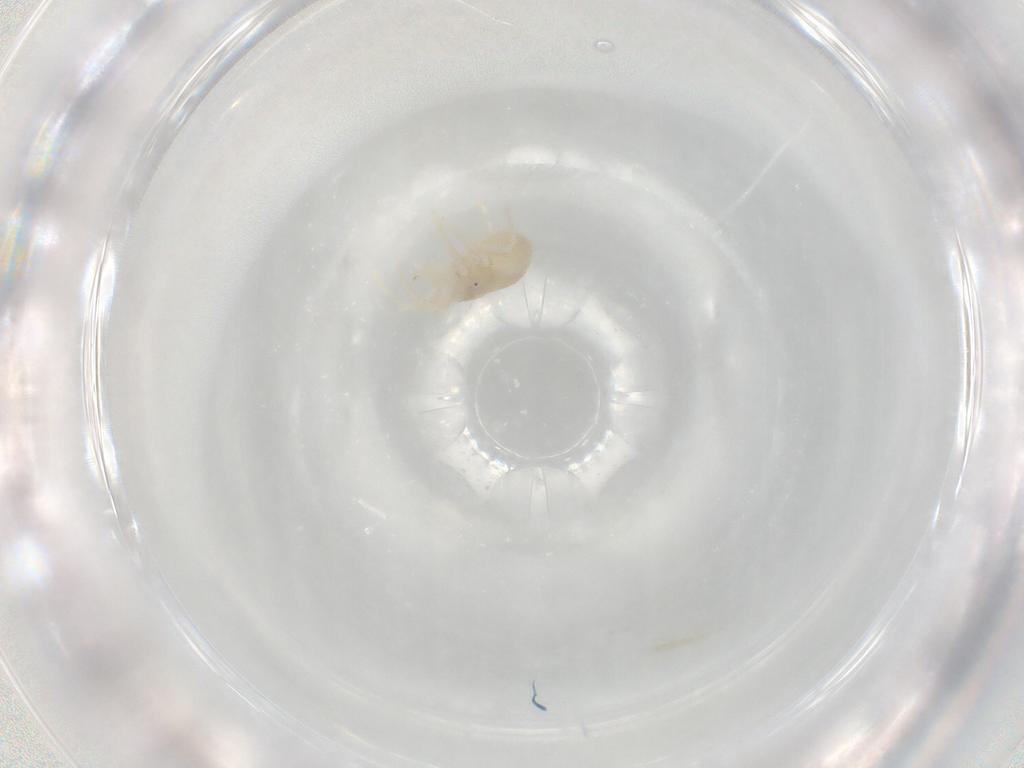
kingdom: Animalia
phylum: Arthropoda
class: Arachnida
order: Sarcoptiformes
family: Phenopelopidae
